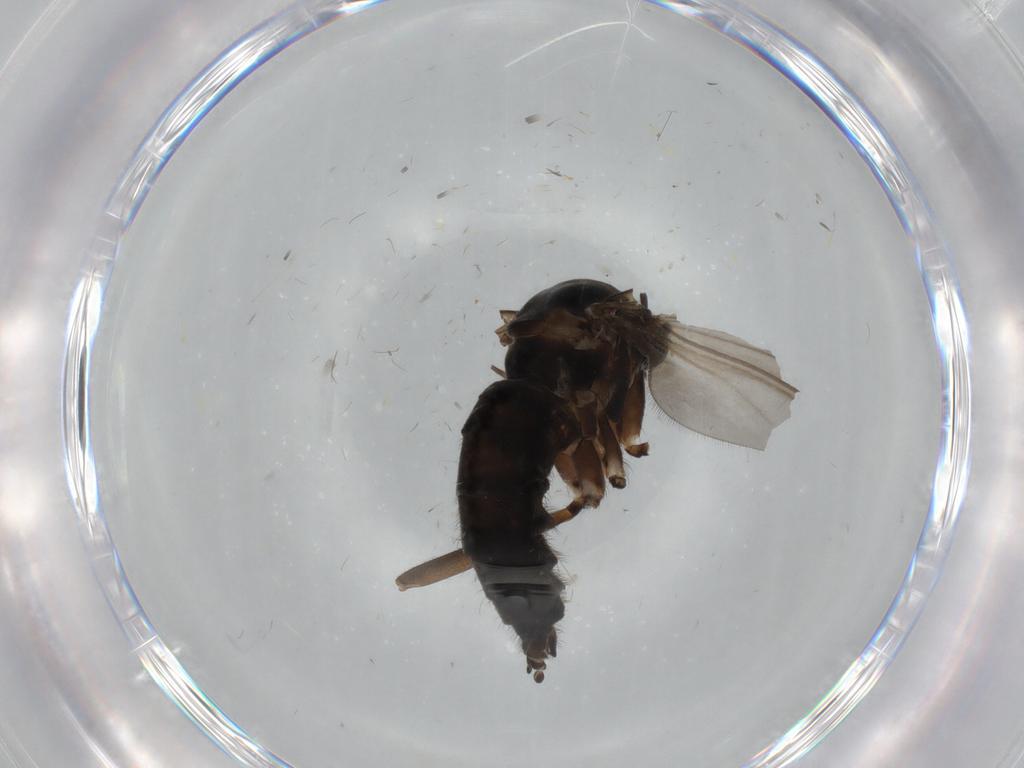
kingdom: Animalia
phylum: Arthropoda
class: Insecta
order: Diptera
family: Sciaridae
